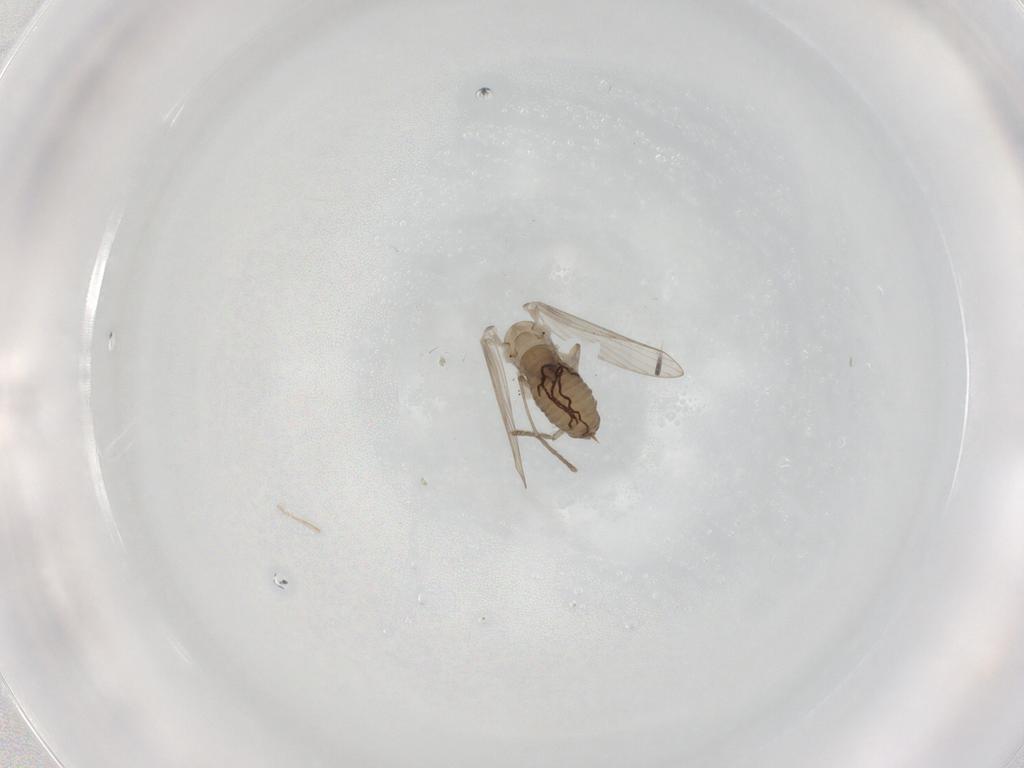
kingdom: Animalia
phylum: Arthropoda
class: Insecta
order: Diptera
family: Psychodidae
